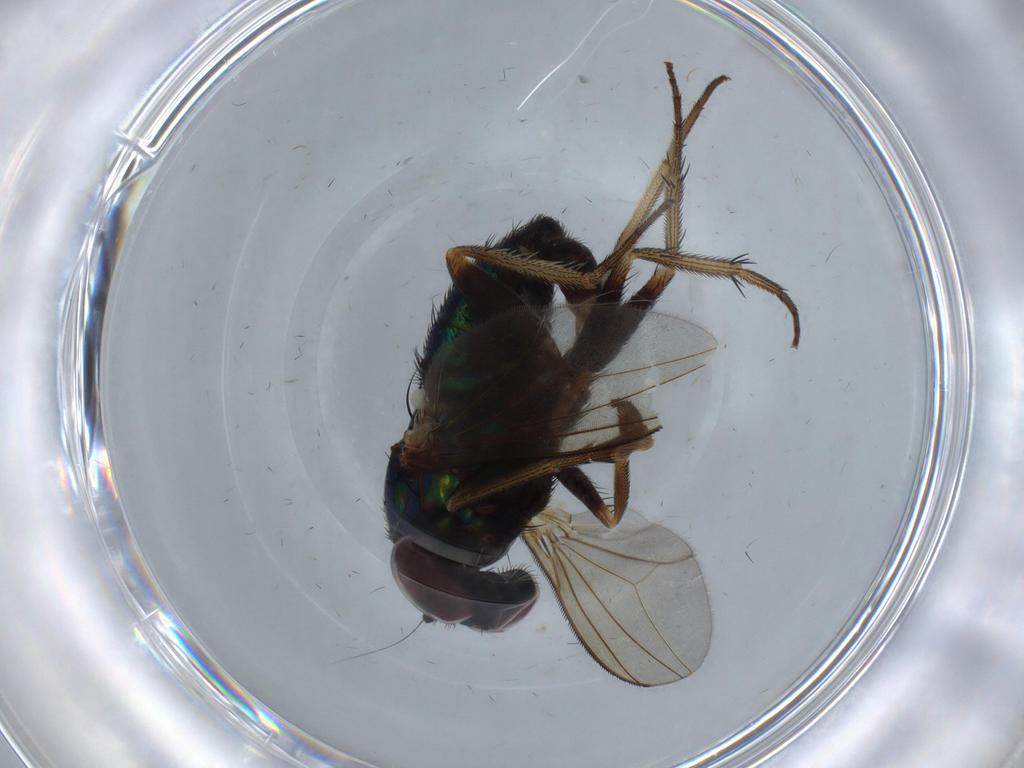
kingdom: Animalia
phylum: Arthropoda
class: Insecta
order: Diptera
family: Dolichopodidae
